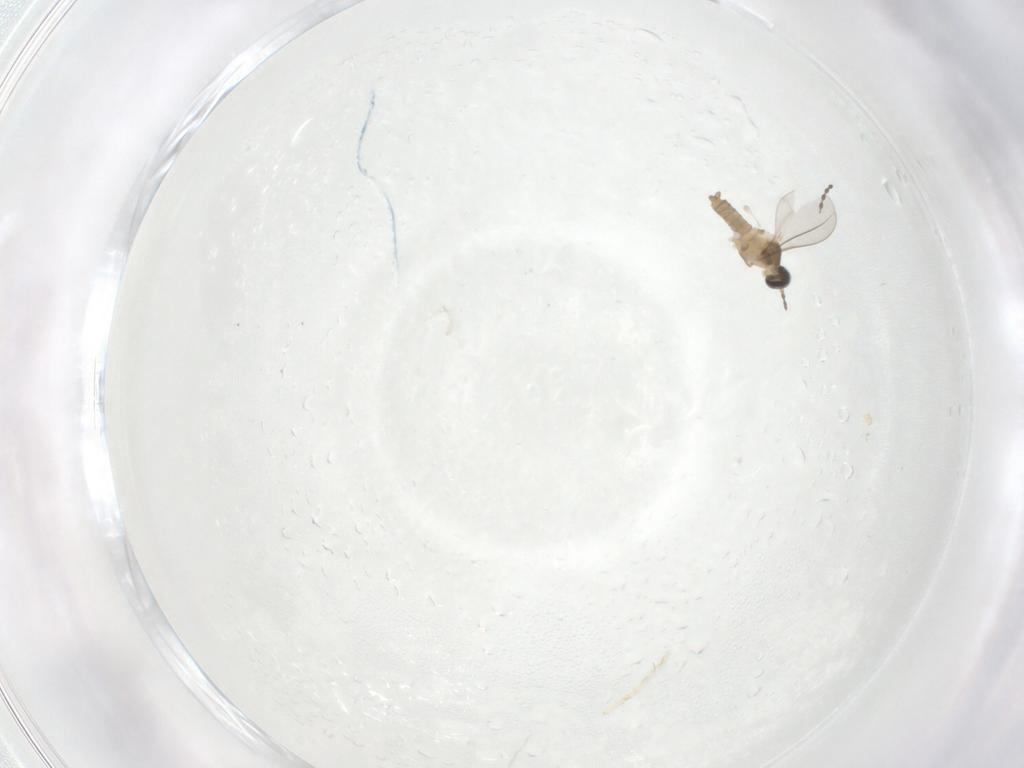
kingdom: Animalia
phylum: Arthropoda
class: Insecta
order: Diptera
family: Cecidomyiidae
